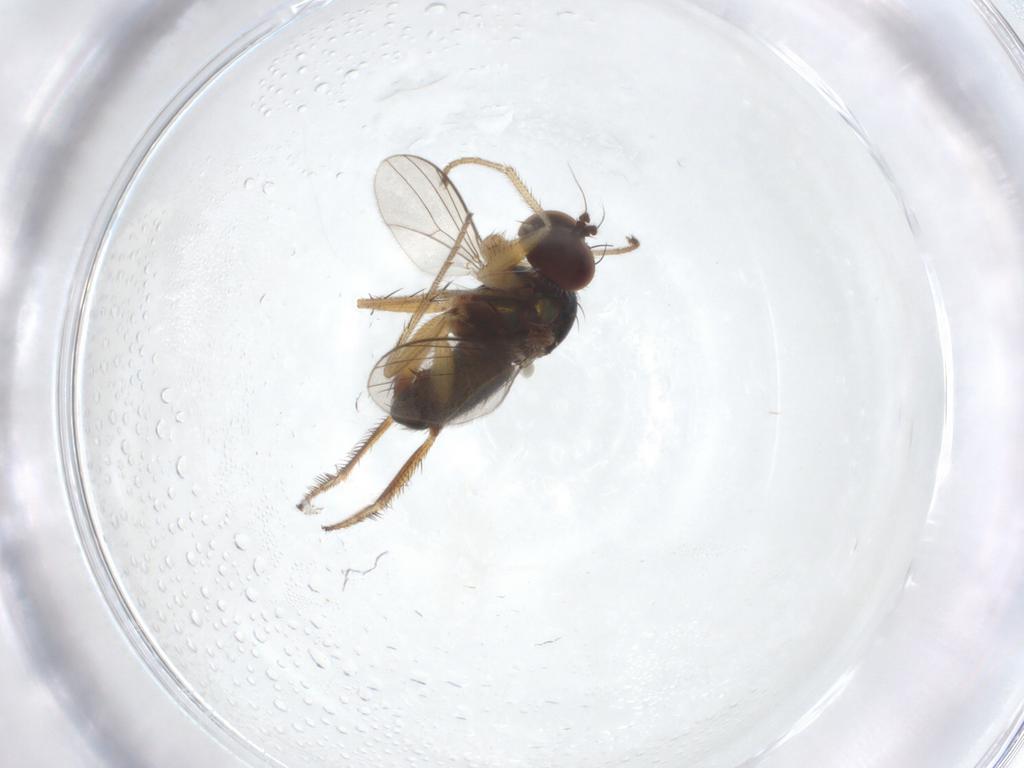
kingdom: Animalia
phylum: Arthropoda
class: Insecta
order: Diptera
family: Dolichopodidae
